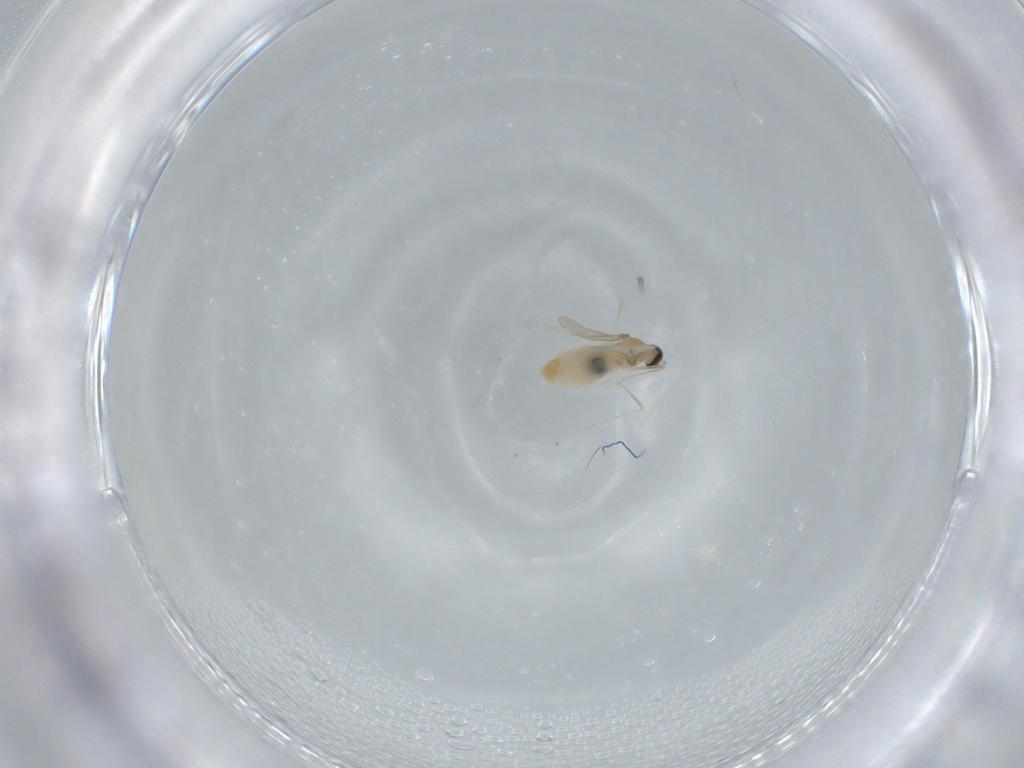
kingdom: Animalia
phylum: Arthropoda
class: Insecta
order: Diptera
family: Cecidomyiidae
